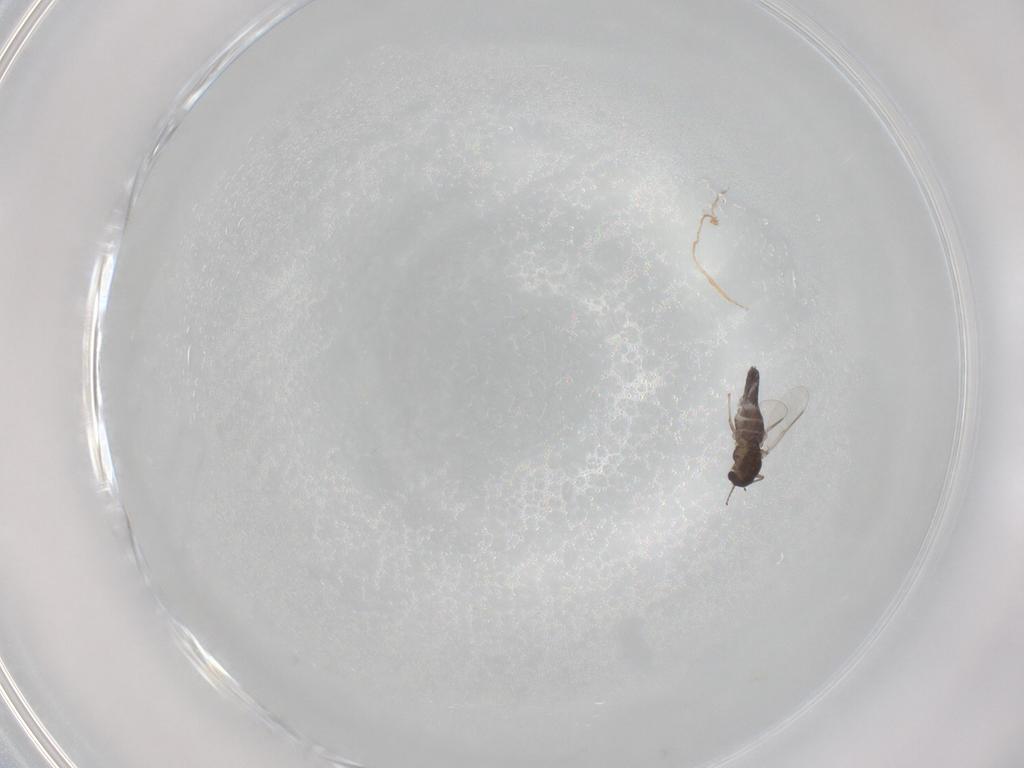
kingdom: Animalia
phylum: Arthropoda
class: Insecta
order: Diptera
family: Chironomidae
